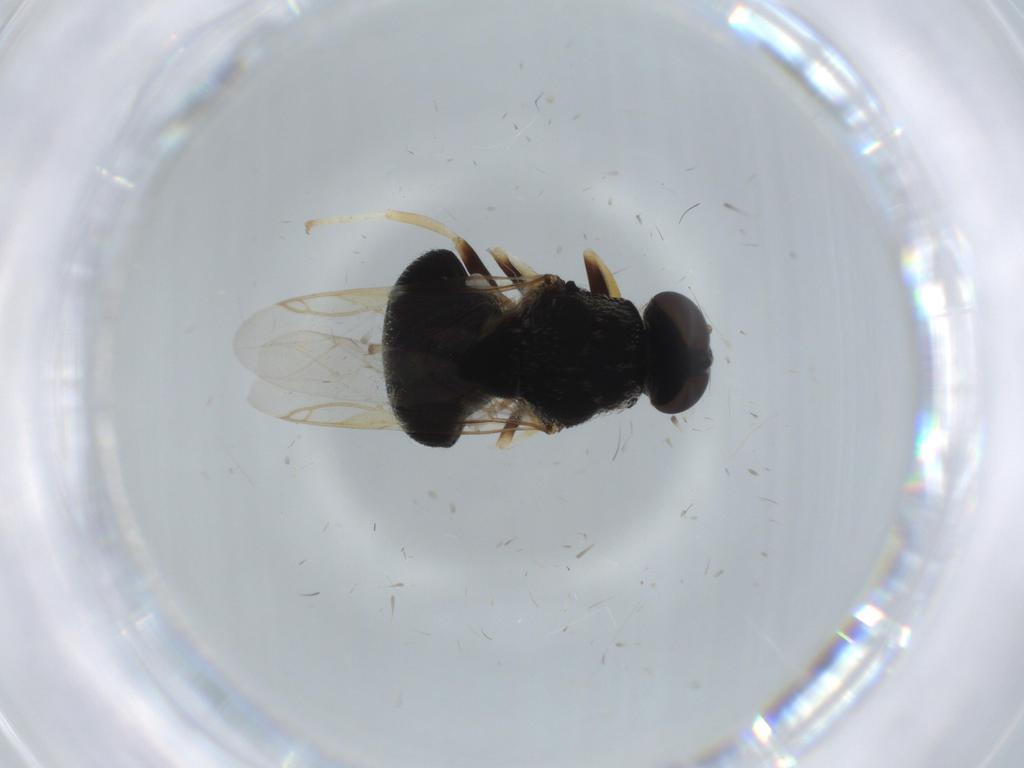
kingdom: Animalia
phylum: Arthropoda
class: Insecta
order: Diptera
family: Stratiomyidae
